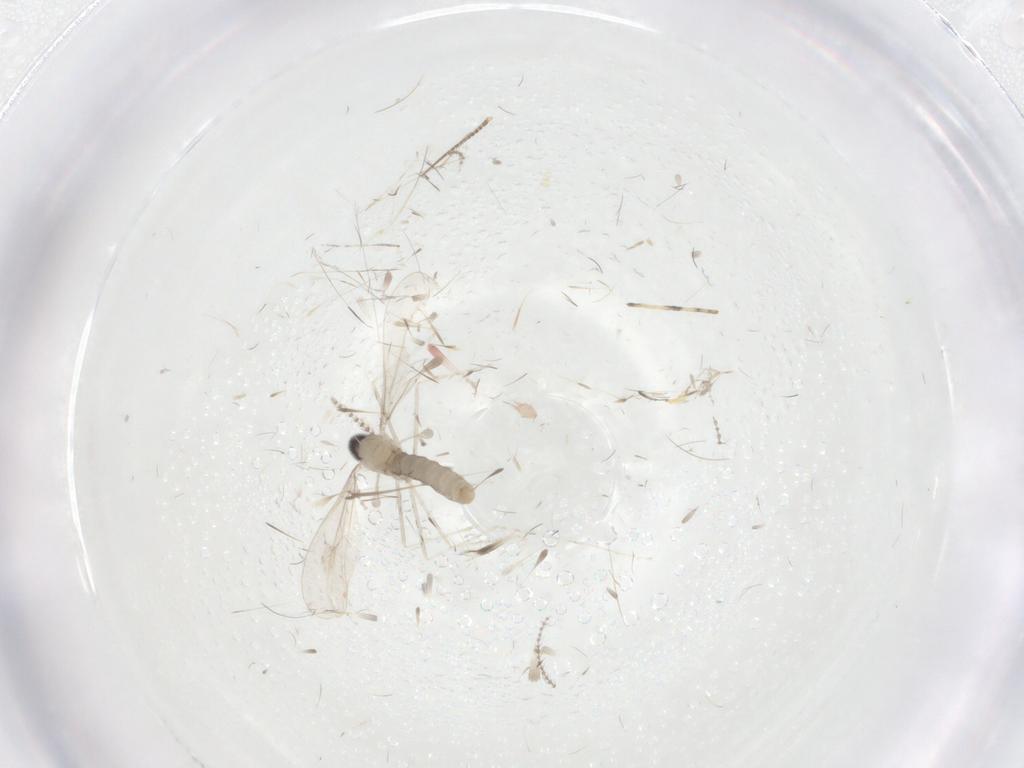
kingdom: Animalia
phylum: Arthropoda
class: Insecta
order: Diptera
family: Cecidomyiidae
